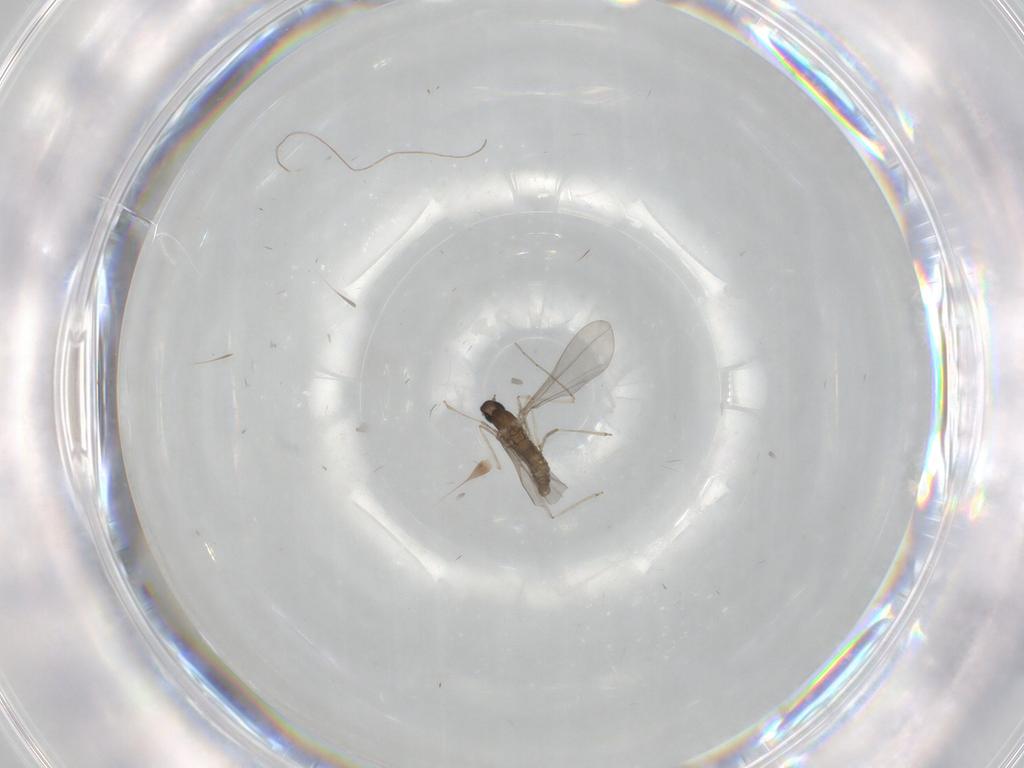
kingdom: Animalia
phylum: Arthropoda
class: Insecta
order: Diptera
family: Cecidomyiidae
